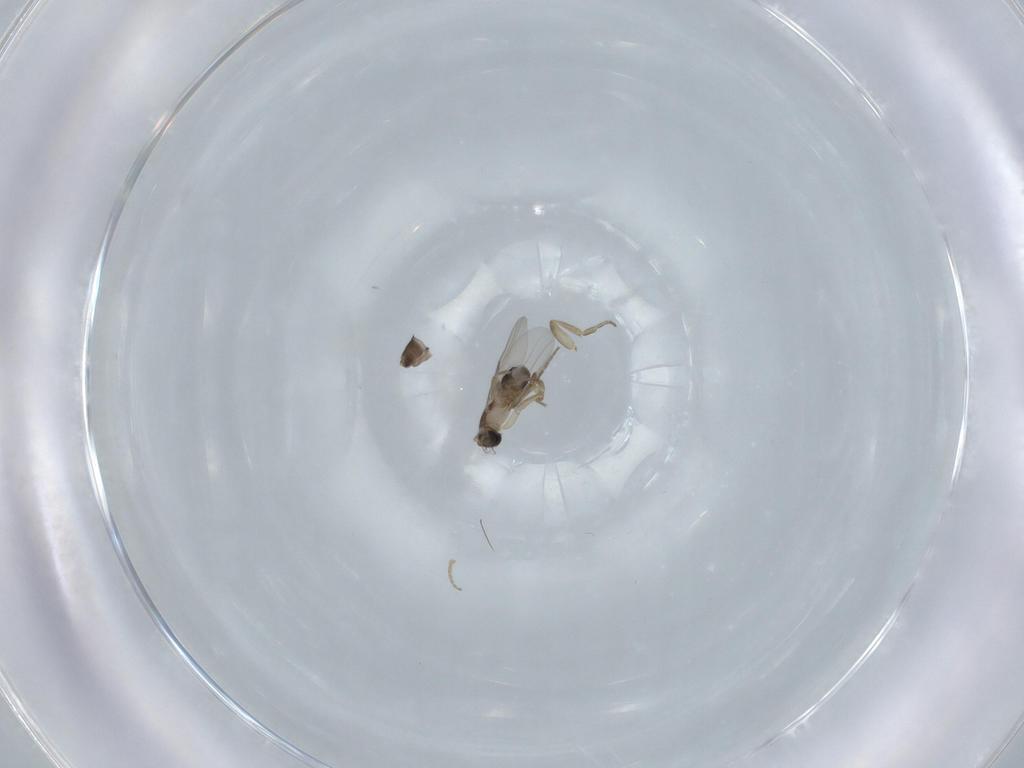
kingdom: Animalia
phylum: Arthropoda
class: Insecta
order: Diptera
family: Phoridae
